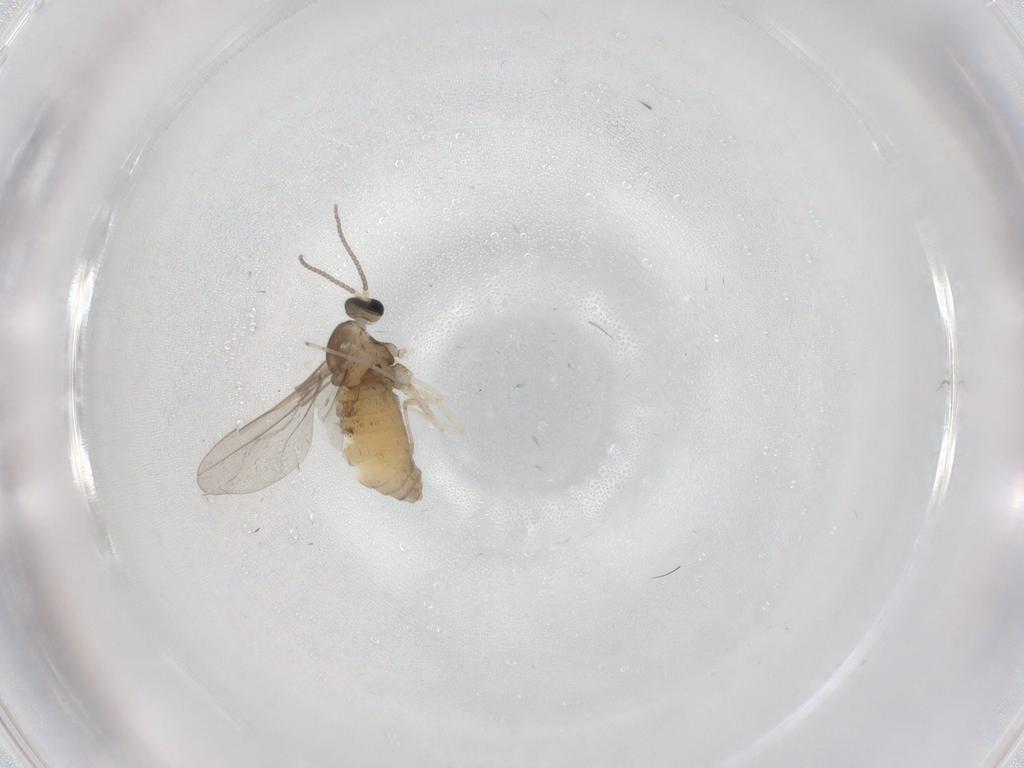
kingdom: Animalia
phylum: Arthropoda
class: Insecta
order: Diptera
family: Cecidomyiidae
